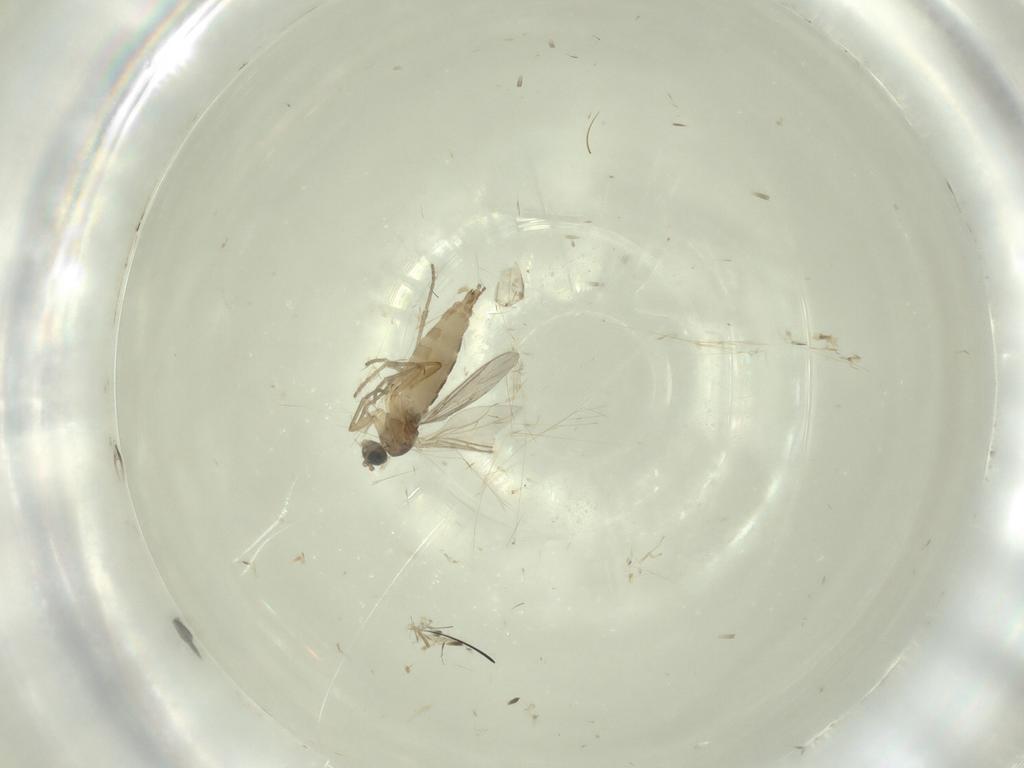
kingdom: Animalia
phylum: Arthropoda
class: Insecta
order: Diptera
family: Sciaridae
